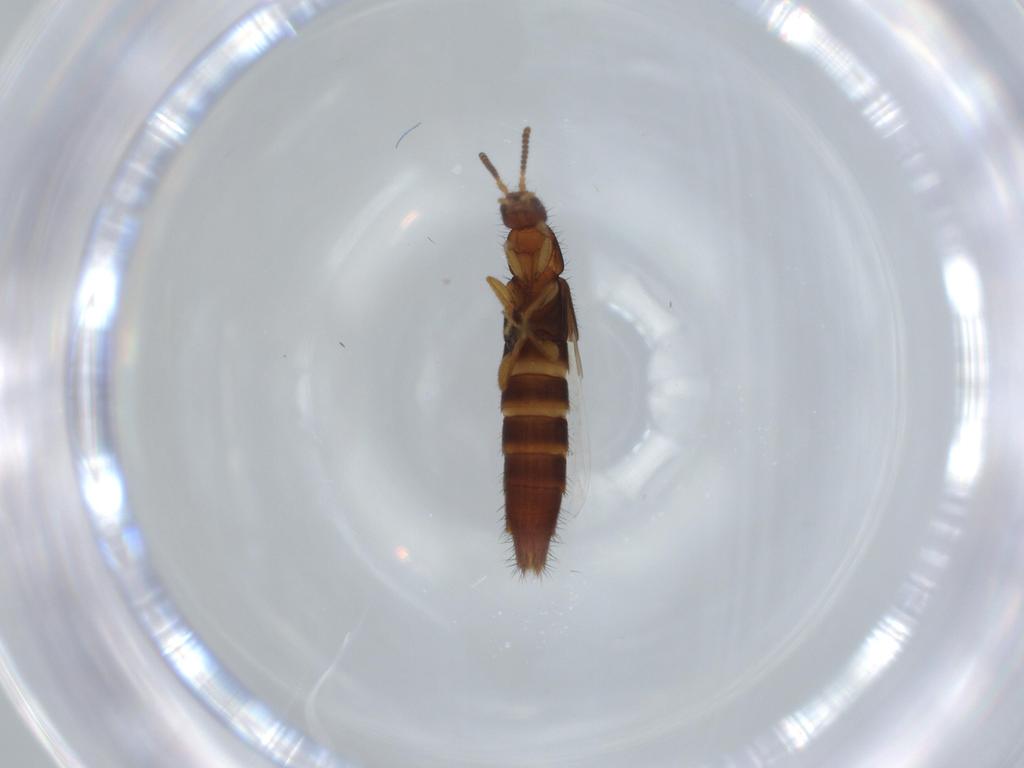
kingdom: Animalia
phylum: Arthropoda
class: Insecta
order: Coleoptera
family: Staphylinidae
